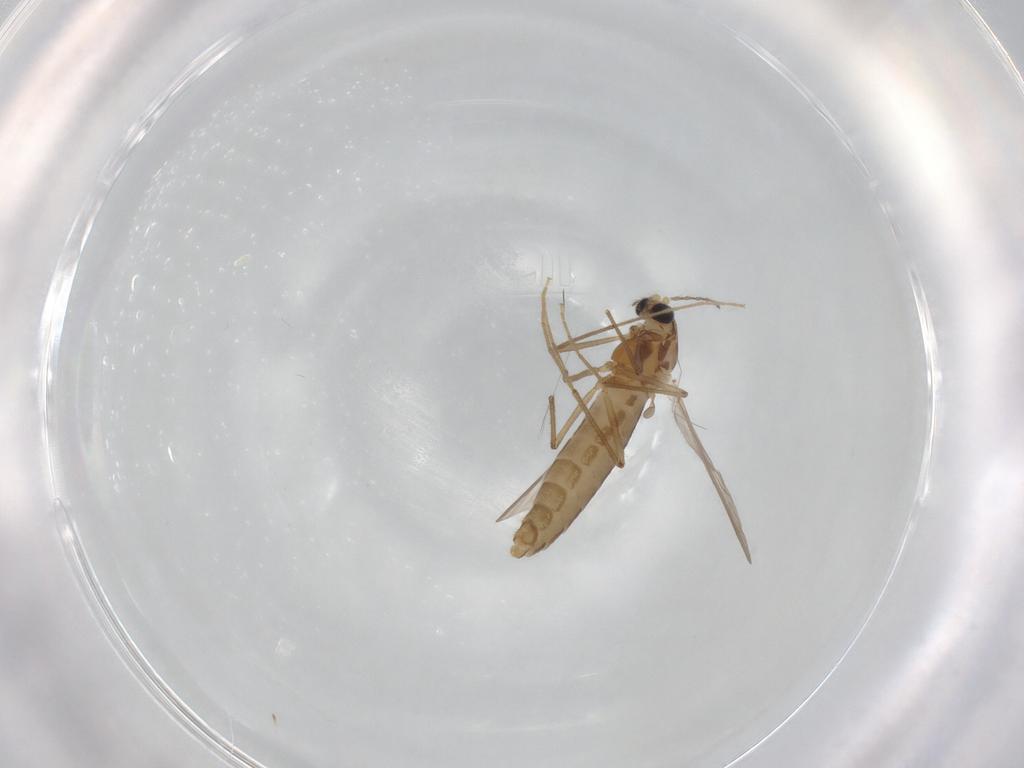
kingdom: Animalia
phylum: Arthropoda
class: Insecta
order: Diptera
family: Chironomidae
